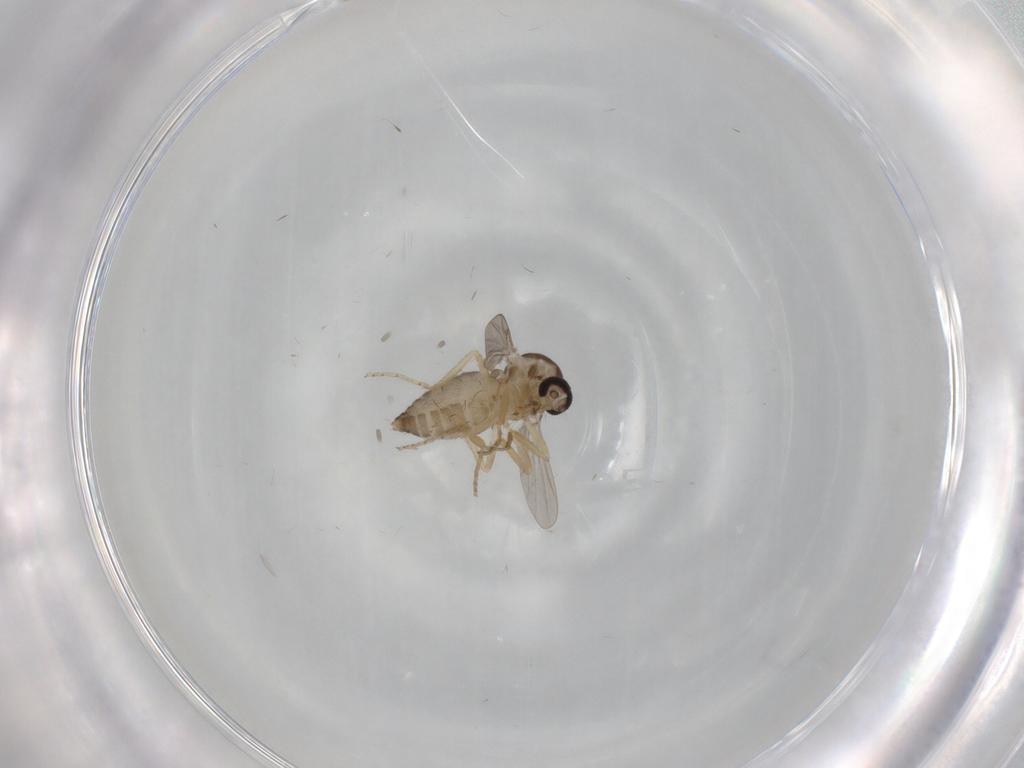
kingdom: Animalia
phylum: Arthropoda
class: Insecta
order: Diptera
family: Ceratopogonidae
